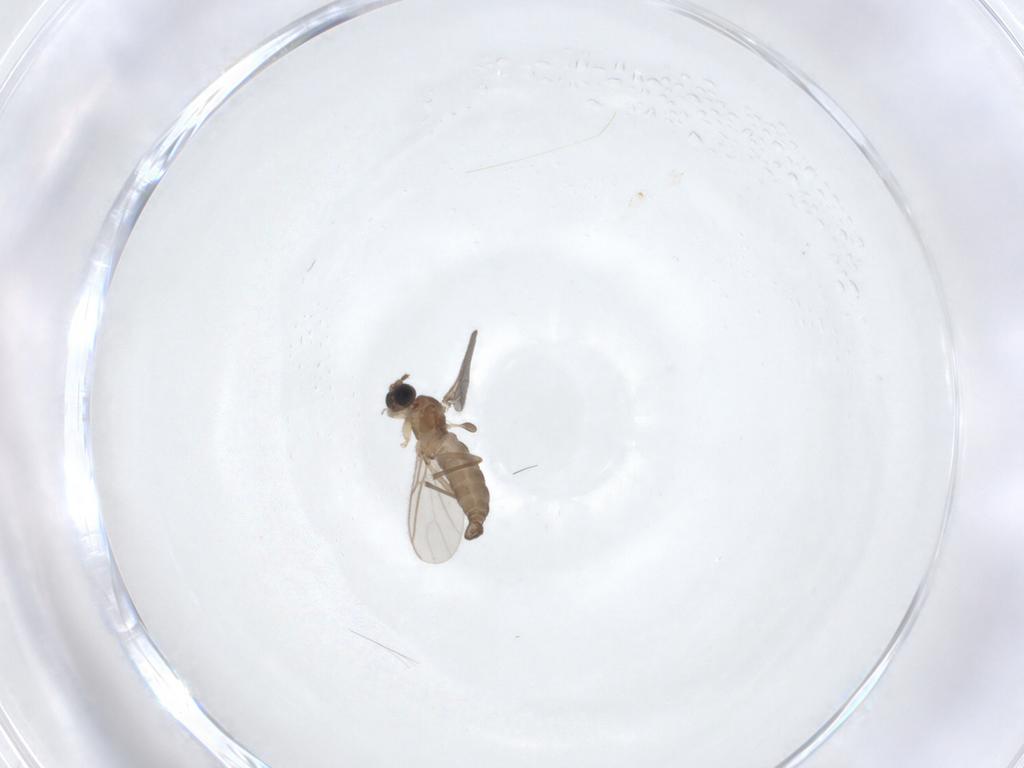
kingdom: Animalia
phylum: Arthropoda
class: Insecta
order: Diptera
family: Sciaridae
